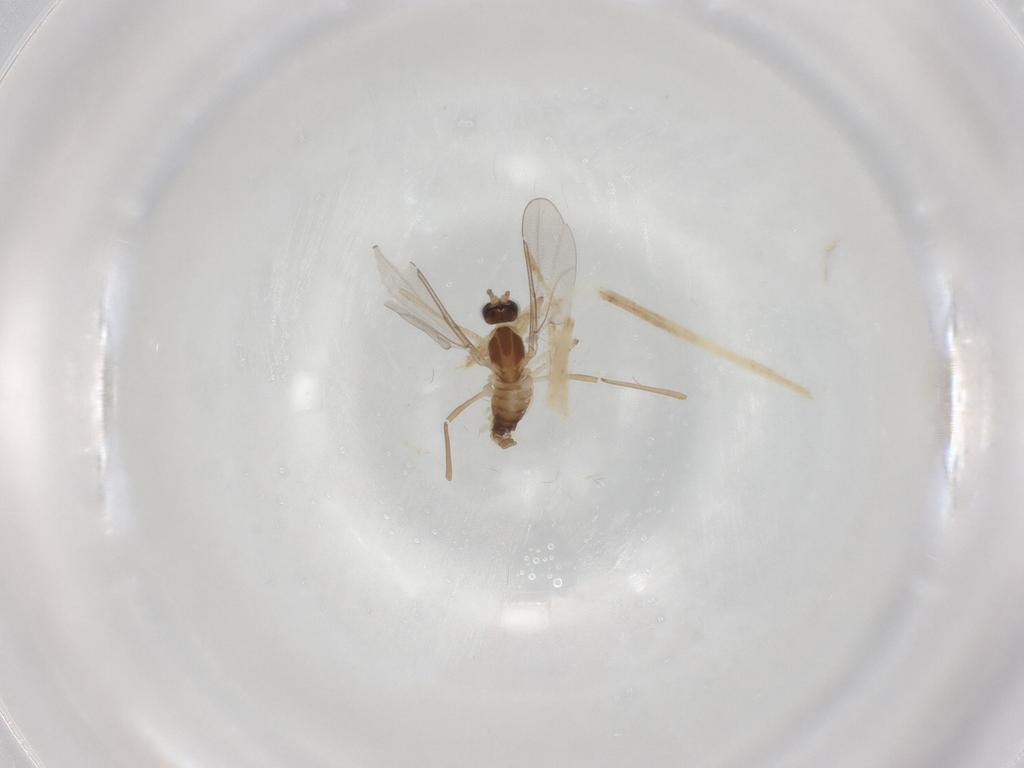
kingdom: Animalia
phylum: Arthropoda
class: Insecta
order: Diptera
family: Cecidomyiidae
